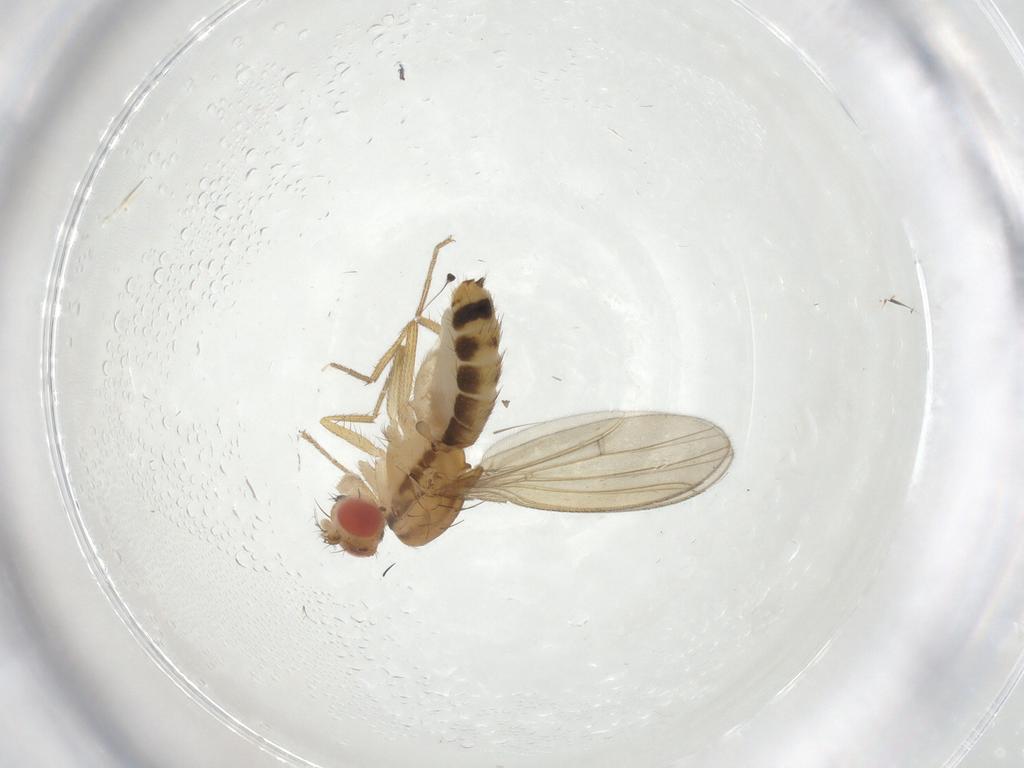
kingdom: Animalia
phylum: Arthropoda
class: Insecta
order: Diptera
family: Drosophilidae
